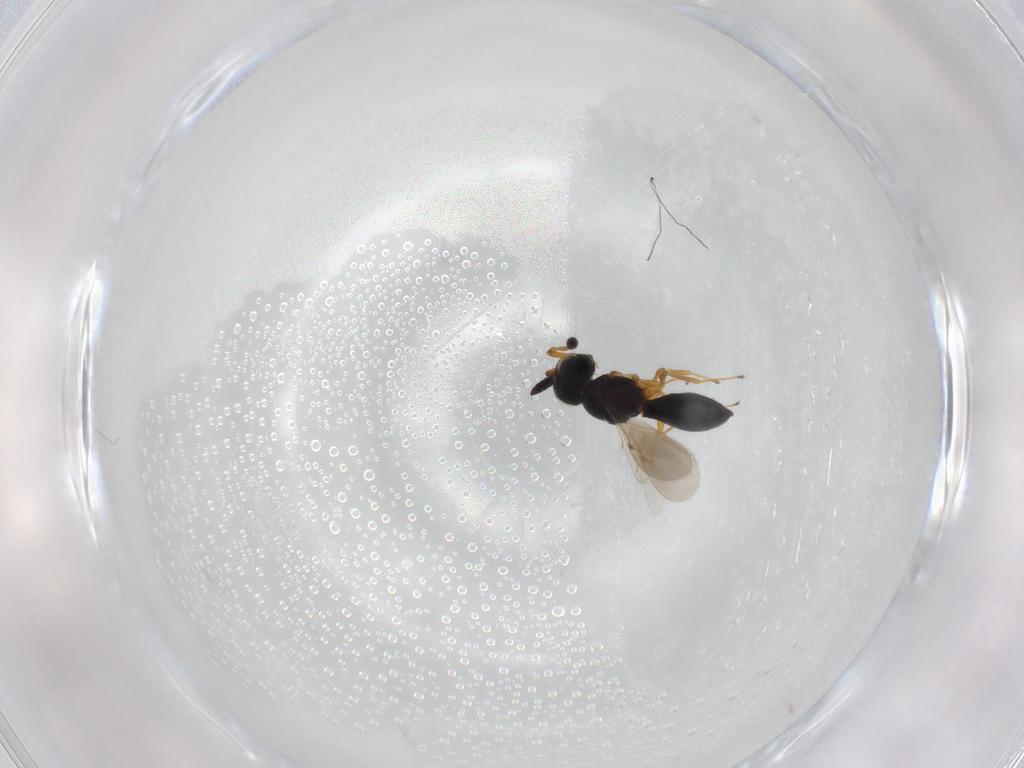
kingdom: Animalia
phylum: Arthropoda
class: Insecta
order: Hymenoptera
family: Scelionidae
